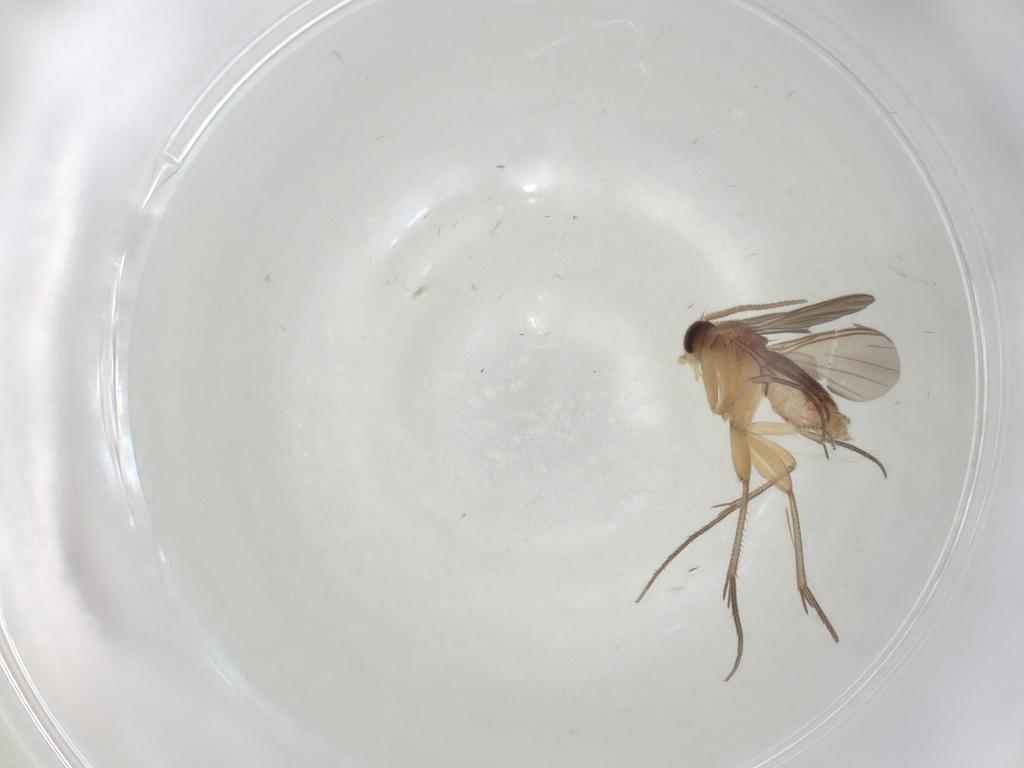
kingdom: Animalia
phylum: Arthropoda
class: Insecta
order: Diptera
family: Mycetophilidae
